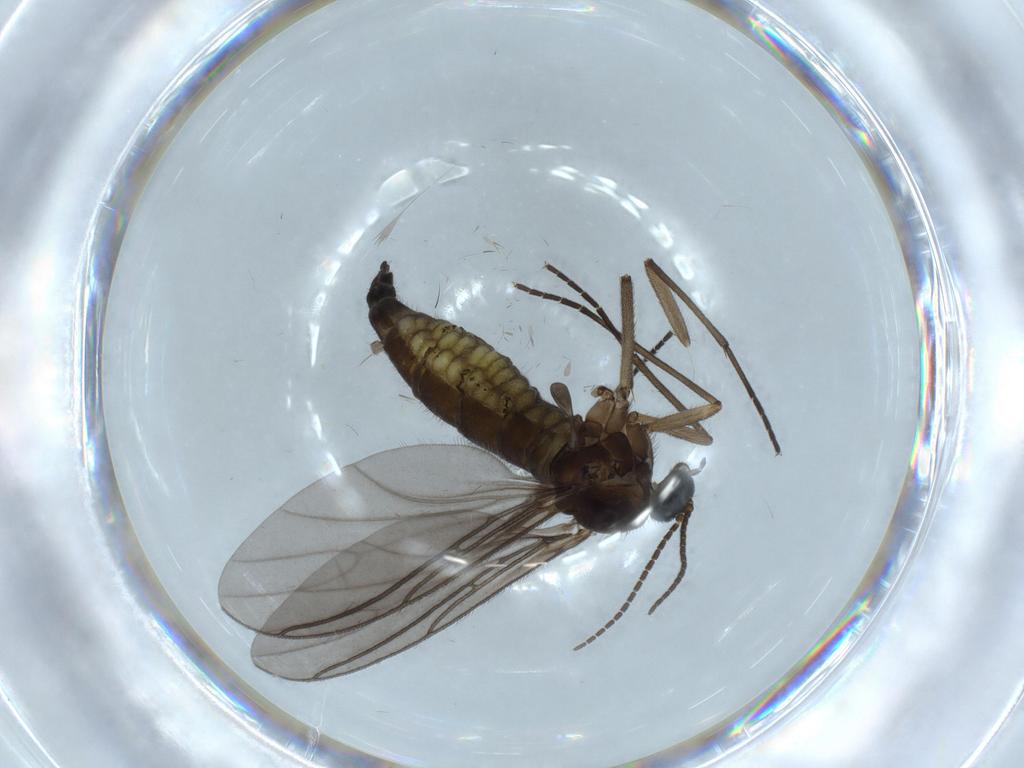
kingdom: Animalia
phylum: Arthropoda
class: Insecta
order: Diptera
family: Sciaridae
